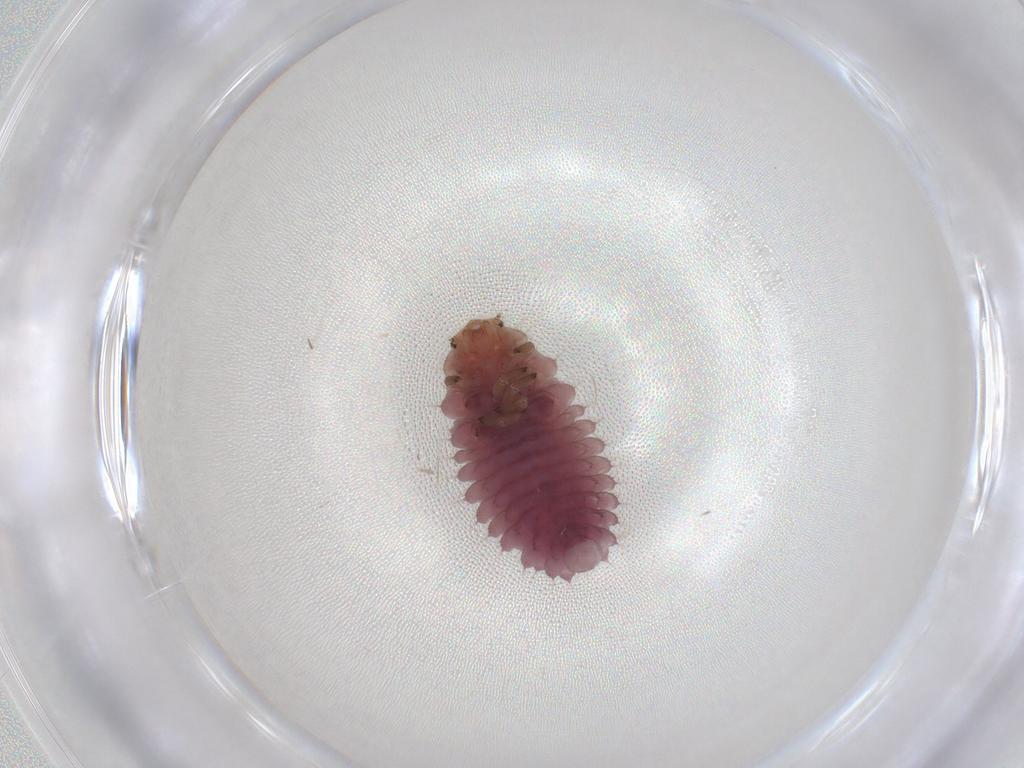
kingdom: Animalia
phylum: Arthropoda
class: Insecta
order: Coleoptera
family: Coccinellidae
